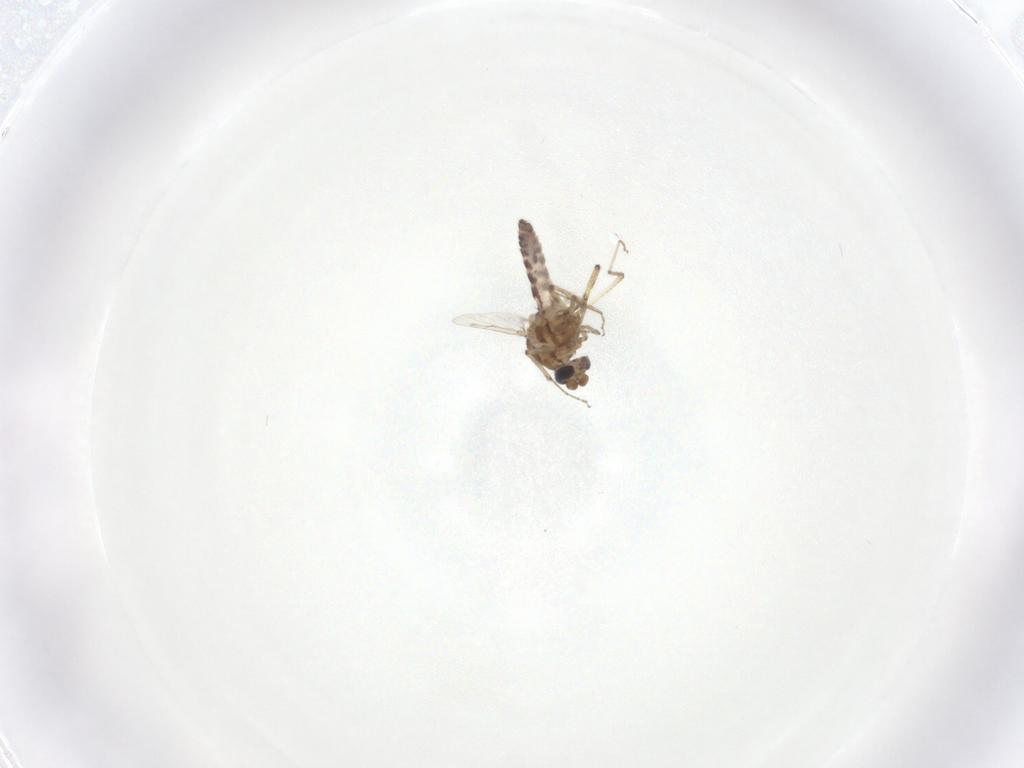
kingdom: Animalia
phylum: Arthropoda
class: Insecta
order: Diptera
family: Ceratopogonidae
